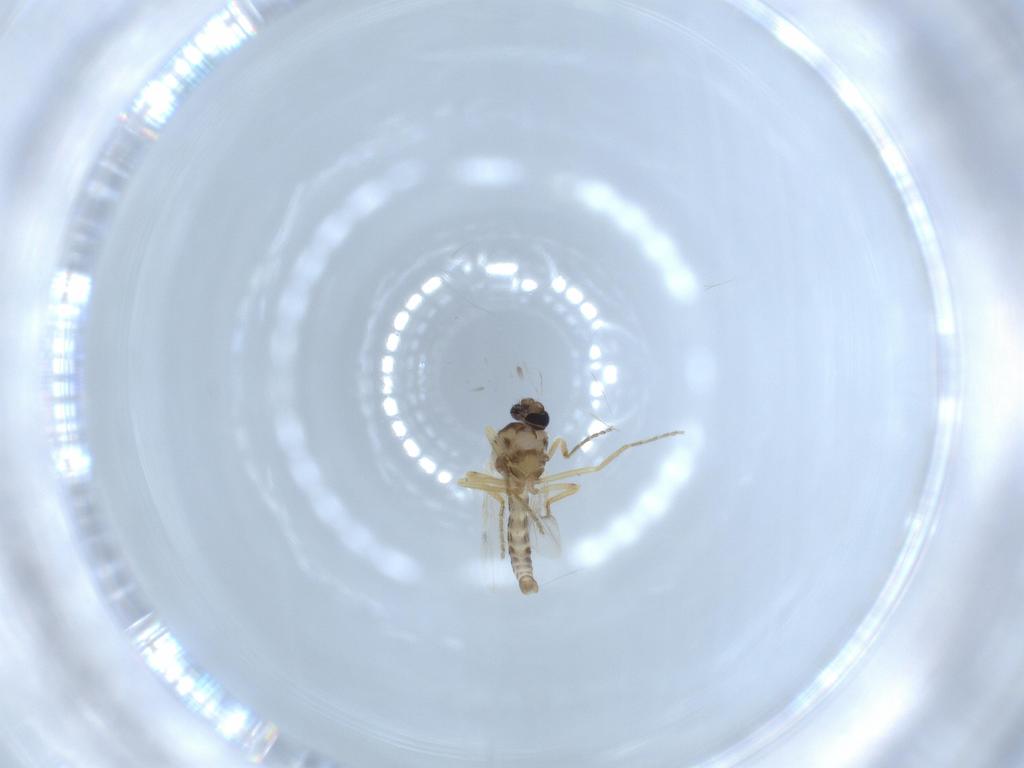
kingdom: Animalia
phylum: Arthropoda
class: Insecta
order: Diptera
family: Ceratopogonidae
